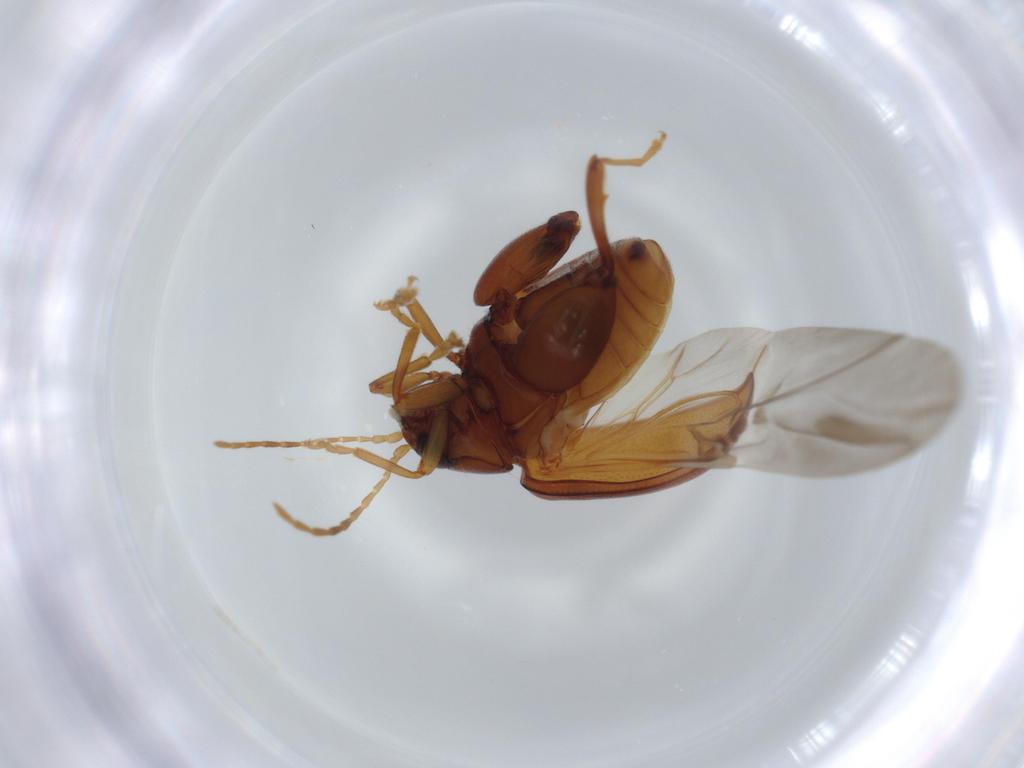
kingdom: Animalia
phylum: Arthropoda
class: Insecta
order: Coleoptera
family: Chrysomelidae
